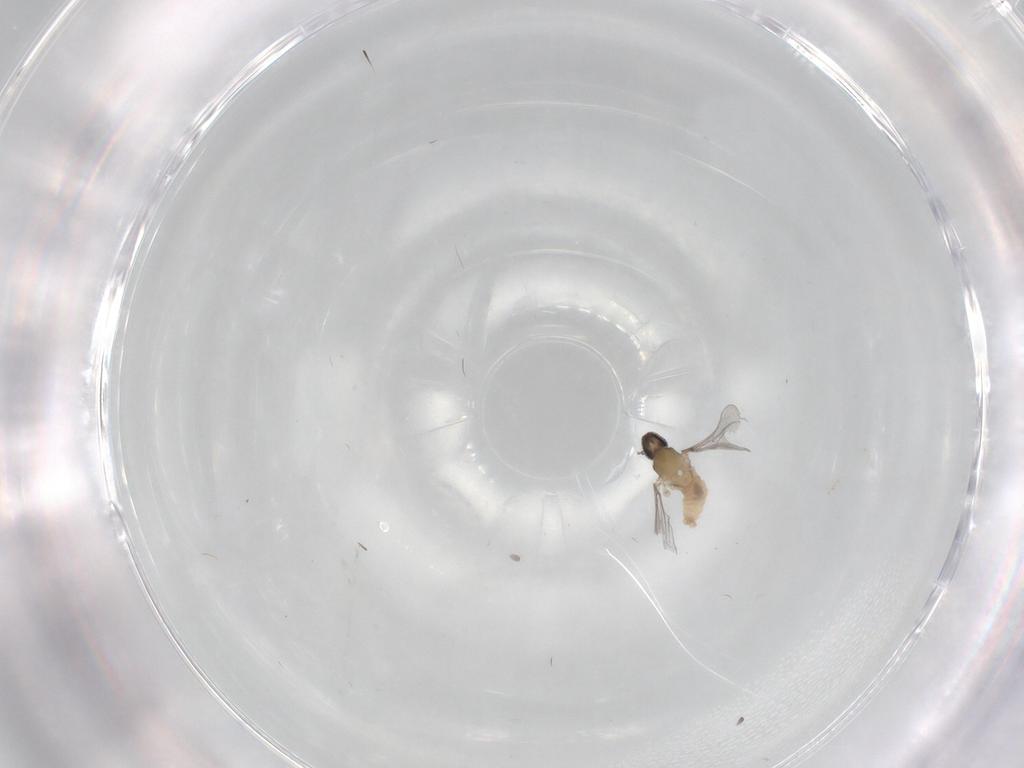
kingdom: Animalia
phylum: Arthropoda
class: Insecta
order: Diptera
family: Cecidomyiidae
